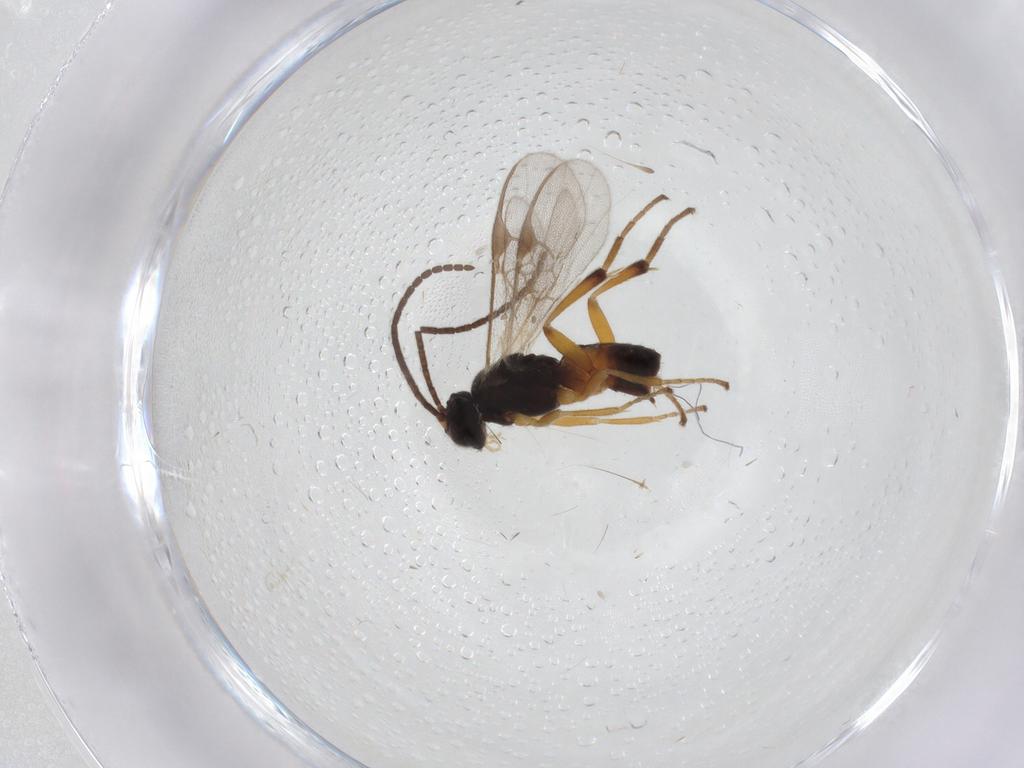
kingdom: Animalia
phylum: Arthropoda
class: Insecta
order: Hymenoptera
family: Braconidae
